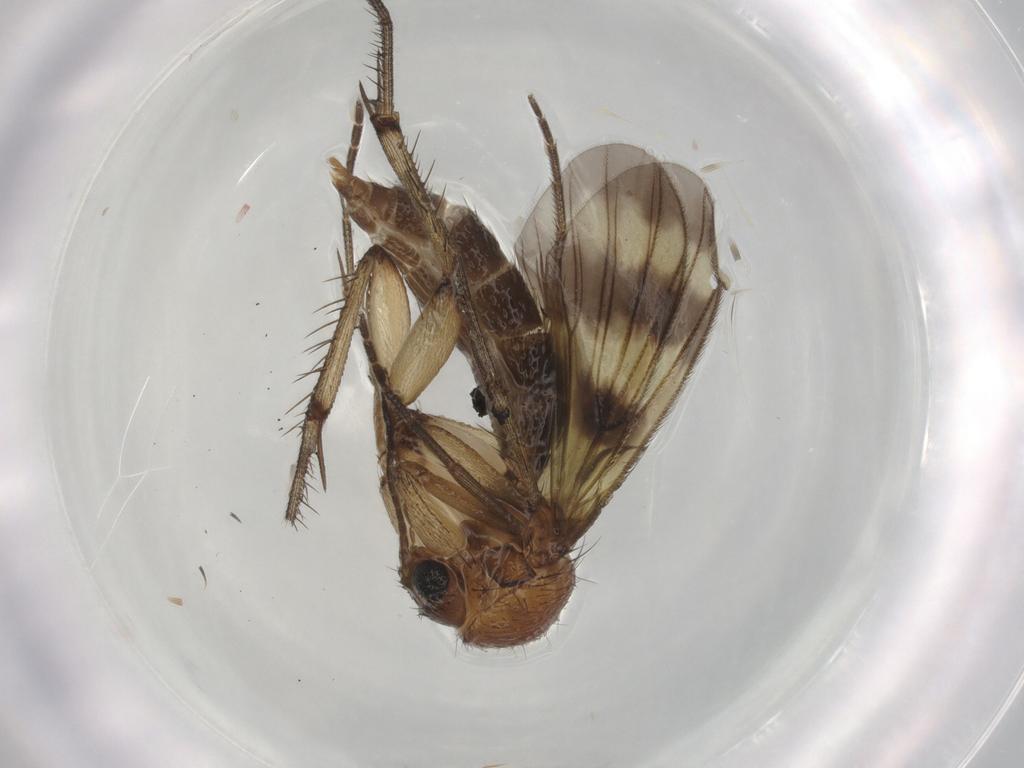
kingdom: Animalia
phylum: Arthropoda
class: Insecta
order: Diptera
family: Mycetophilidae
